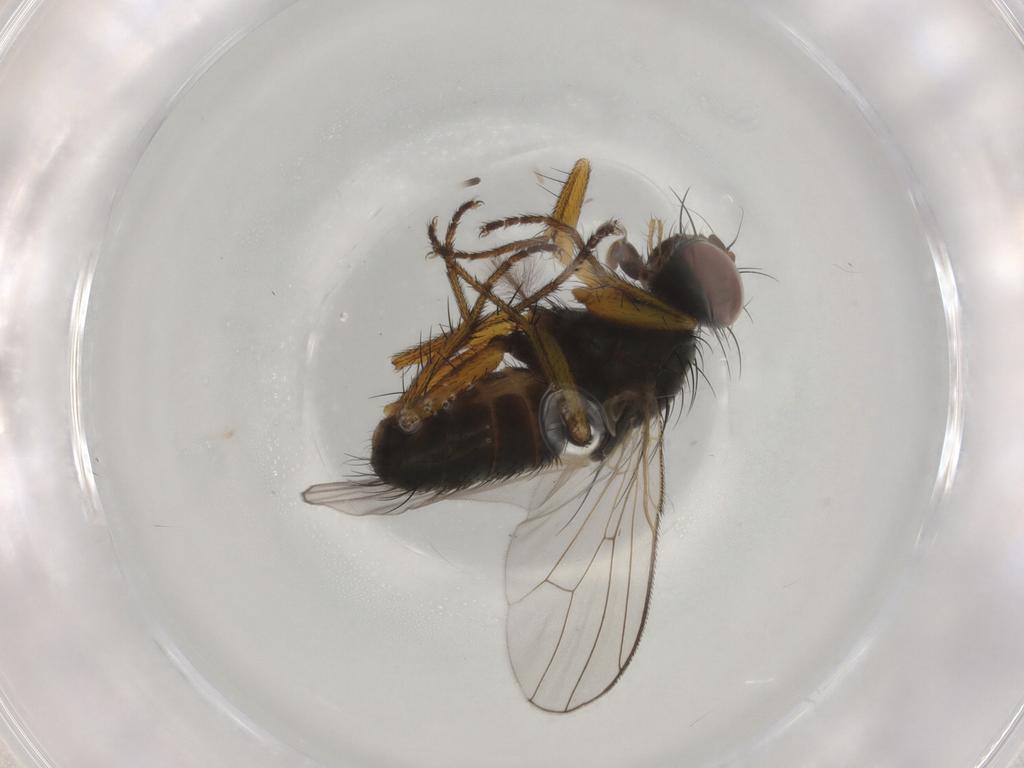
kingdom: Animalia
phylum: Arthropoda
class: Insecta
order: Diptera
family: Muscidae
